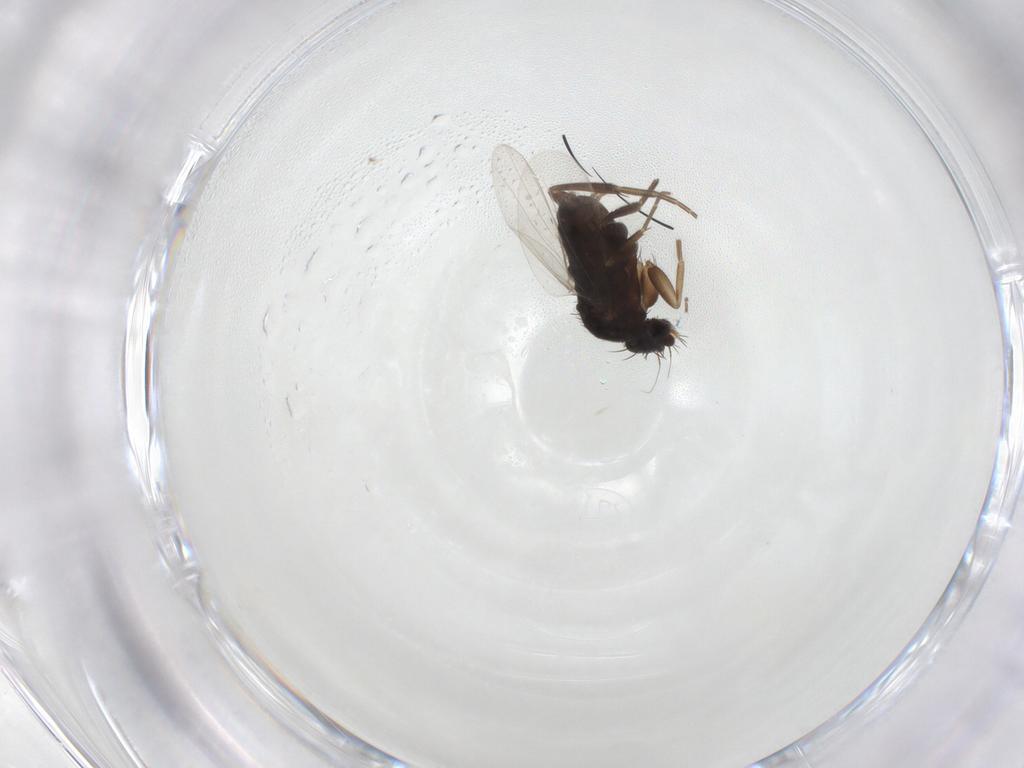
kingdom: Animalia
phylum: Arthropoda
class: Insecta
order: Diptera
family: Phoridae
